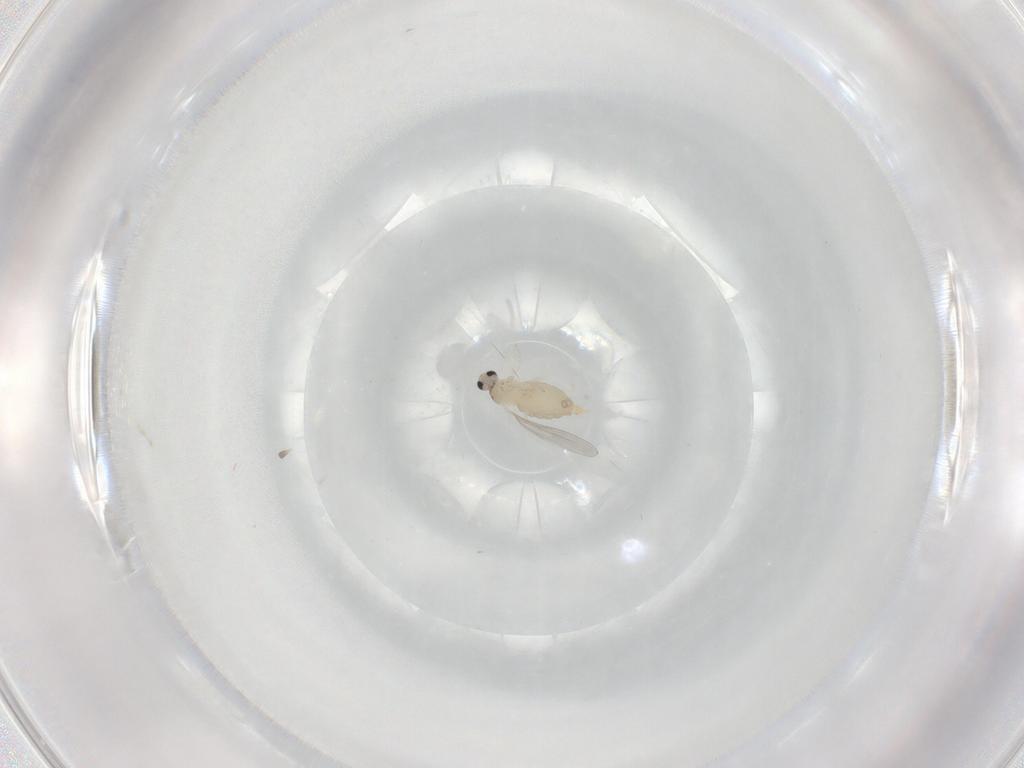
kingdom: Animalia
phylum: Arthropoda
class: Insecta
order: Diptera
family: Cecidomyiidae
